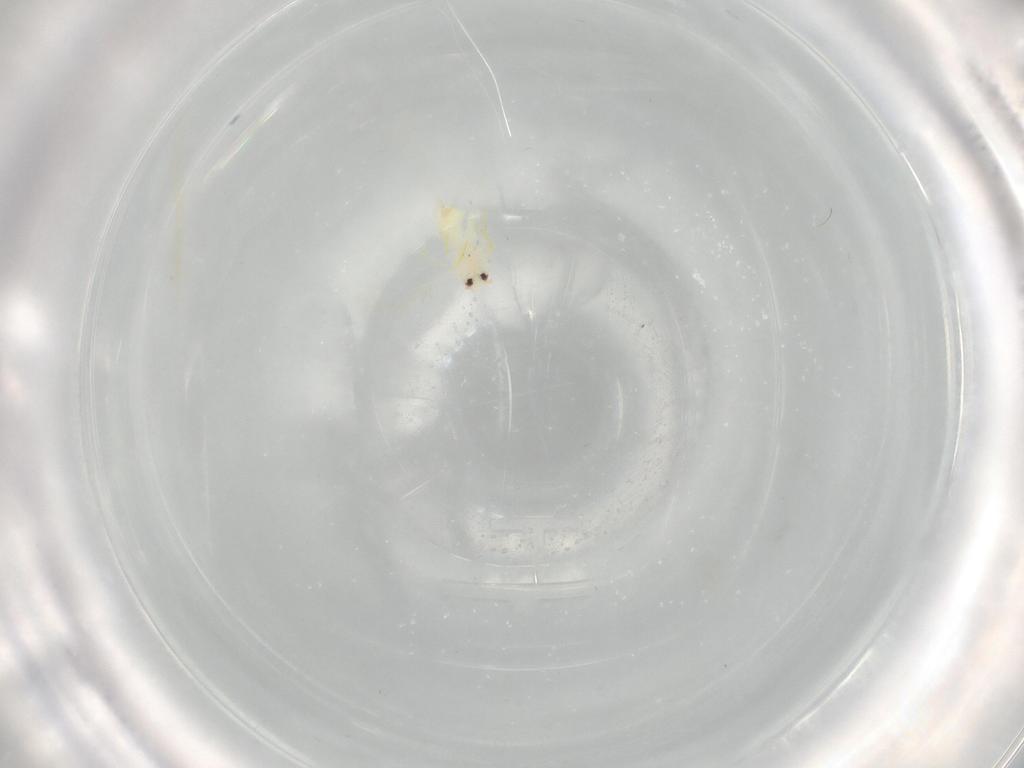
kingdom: Animalia
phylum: Arthropoda
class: Insecta
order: Hemiptera
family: Aleyrodidae
